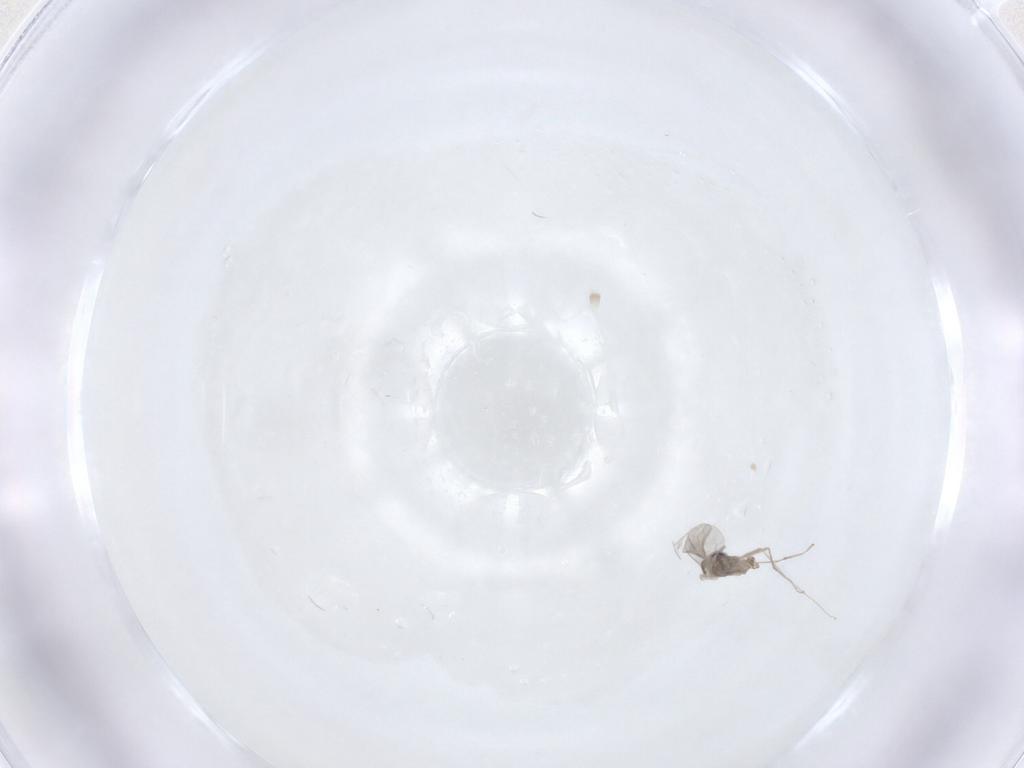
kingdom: Animalia
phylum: Arthropoda
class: Insecta
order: Diptera
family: Cecidomyiidae
